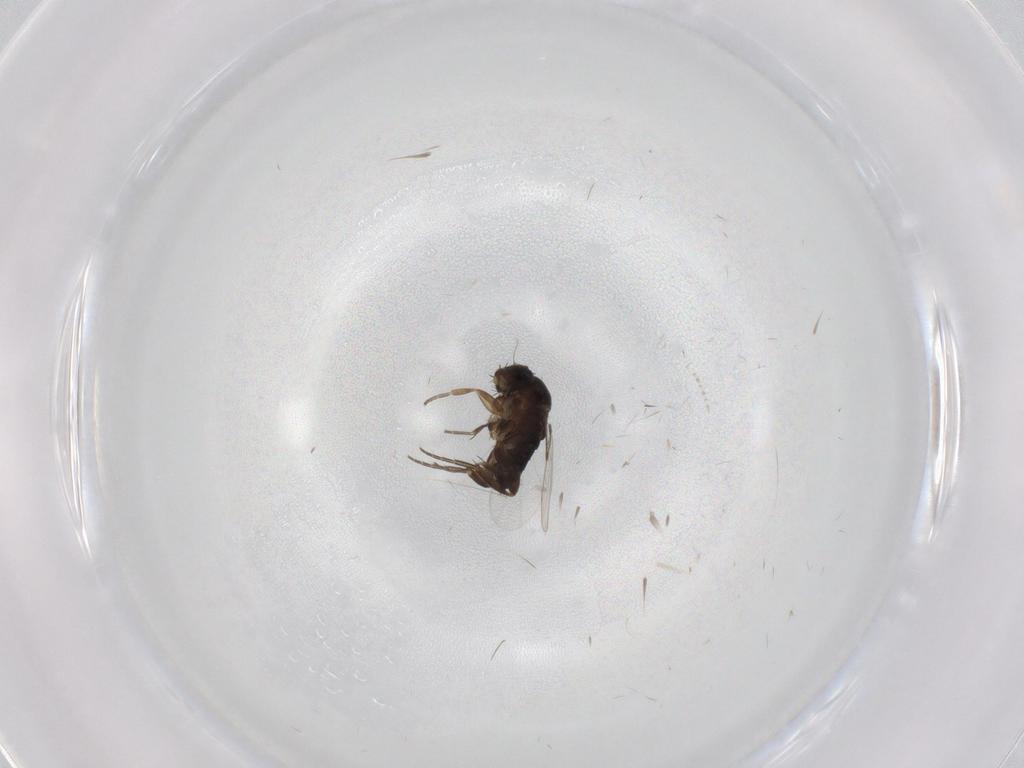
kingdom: Animalia
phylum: Arthropoda
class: Insecta
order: Diptera
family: Phoridae
